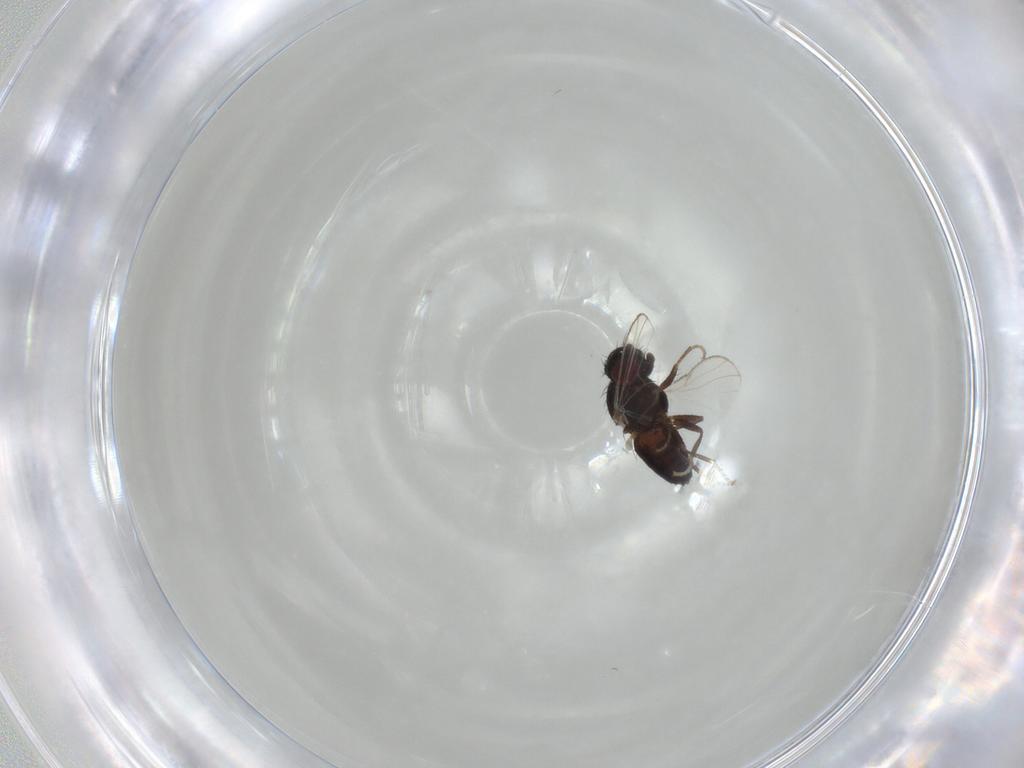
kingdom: Animalia
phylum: Arthropoda
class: Insecta
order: Diptera
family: Carnidae
